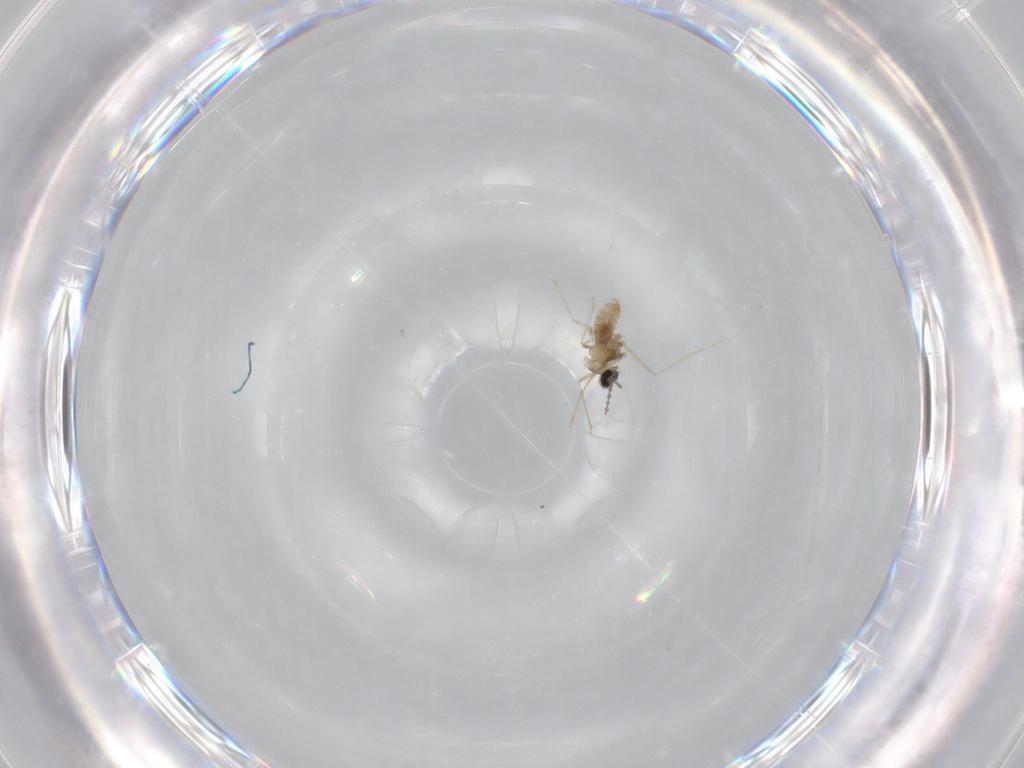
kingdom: Animalia
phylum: Arthropoda
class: Insecta
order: Diptera
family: Cecidomyiidae
